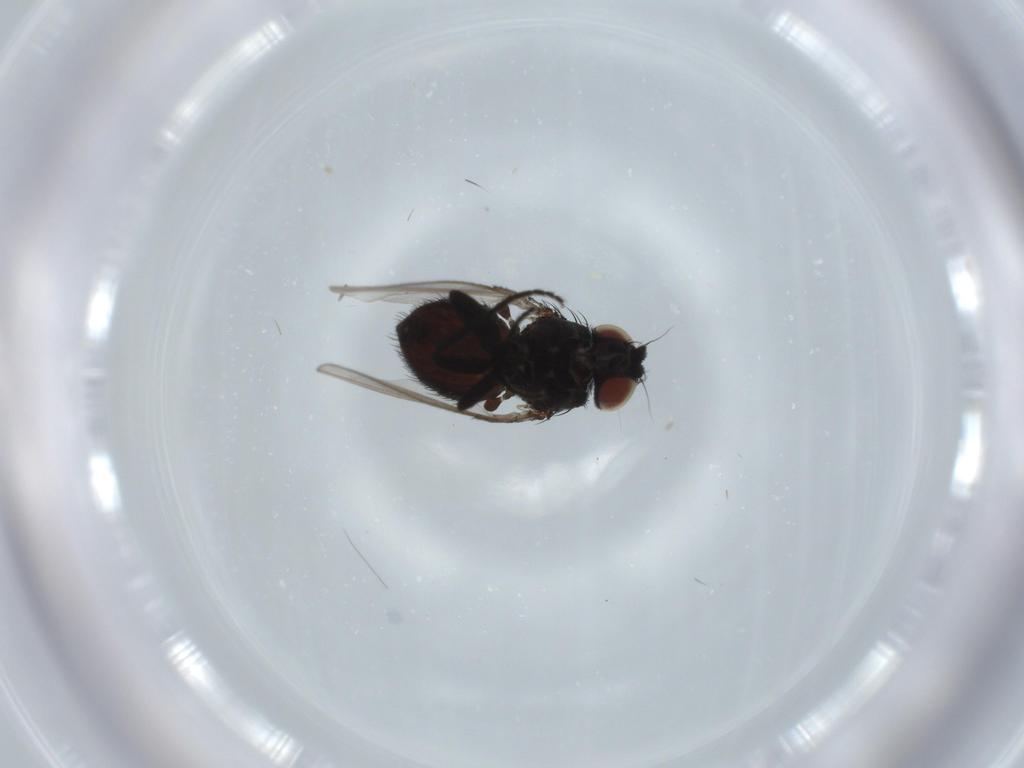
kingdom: Animalia
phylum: Arthropoda
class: Insecta
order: Diptera
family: Milichiidae
